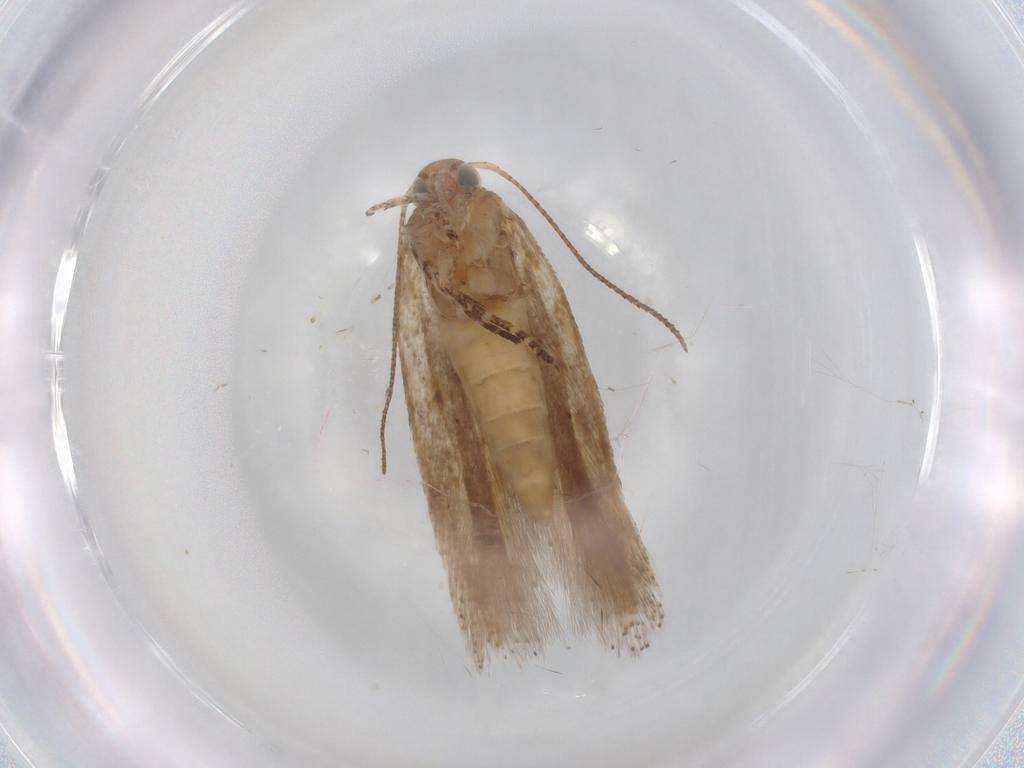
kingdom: Animalia
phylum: Arthropoda
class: Insecta
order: Lepidoptera
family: Gelechiidae
